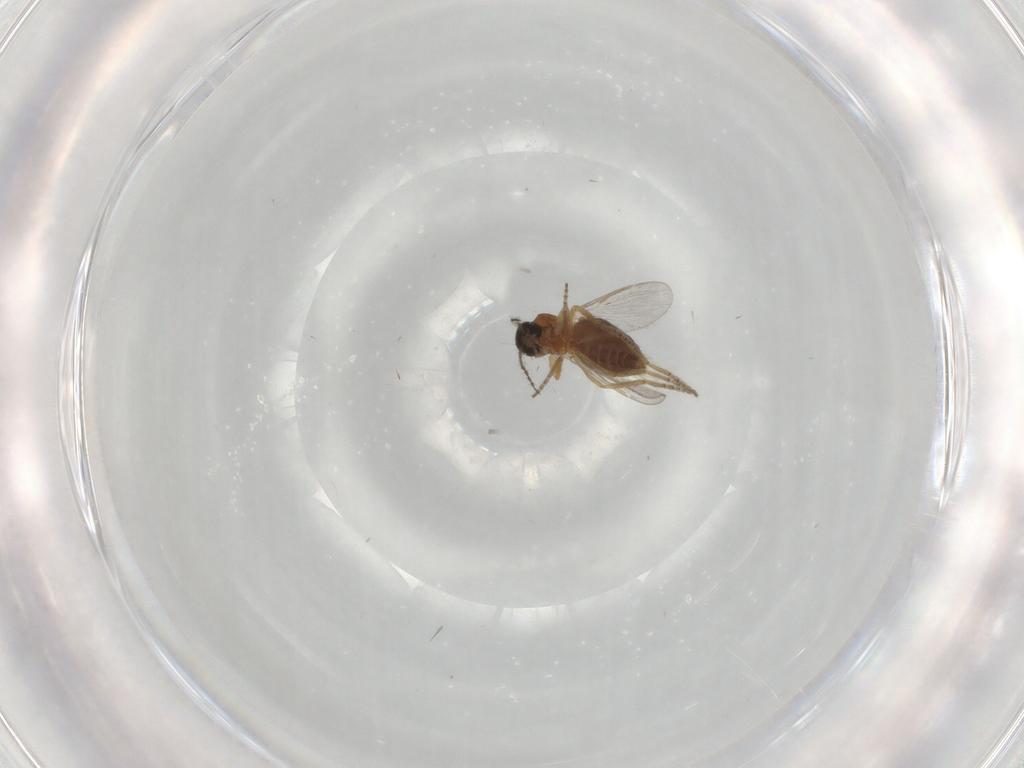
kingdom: Animalia
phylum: Arthropoda
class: Insecta
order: Diptera
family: Ceratopogonidae
